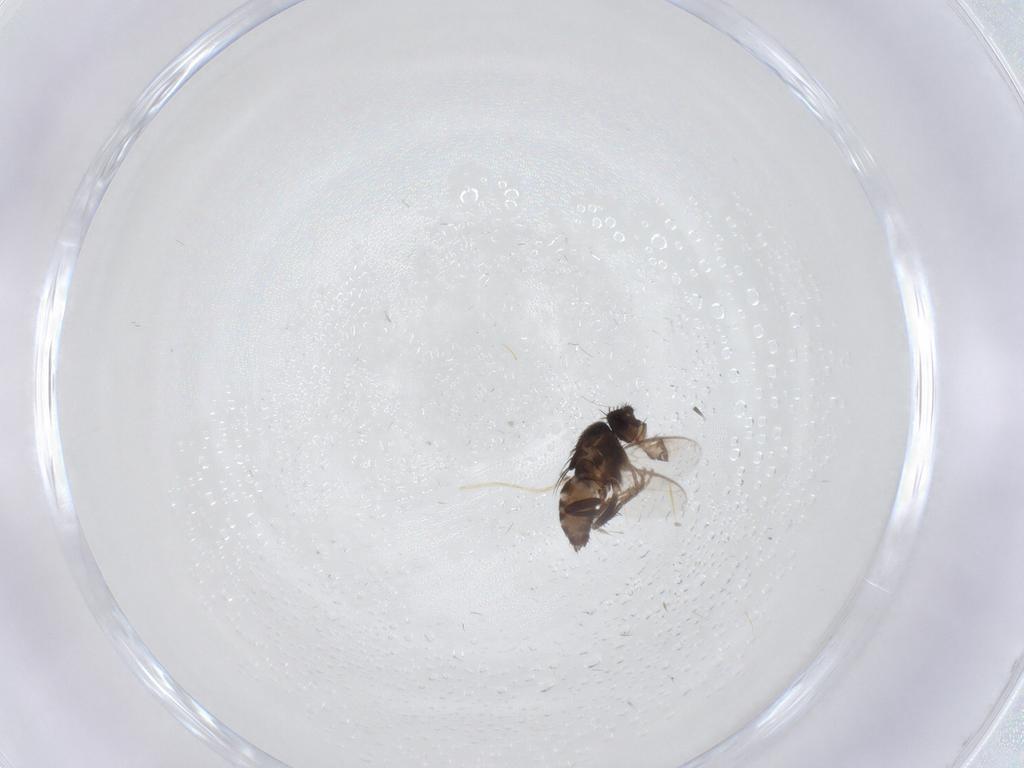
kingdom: Animalia
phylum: Arthropoda
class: Insecta
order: Diptera
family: Sphaeroceridae
